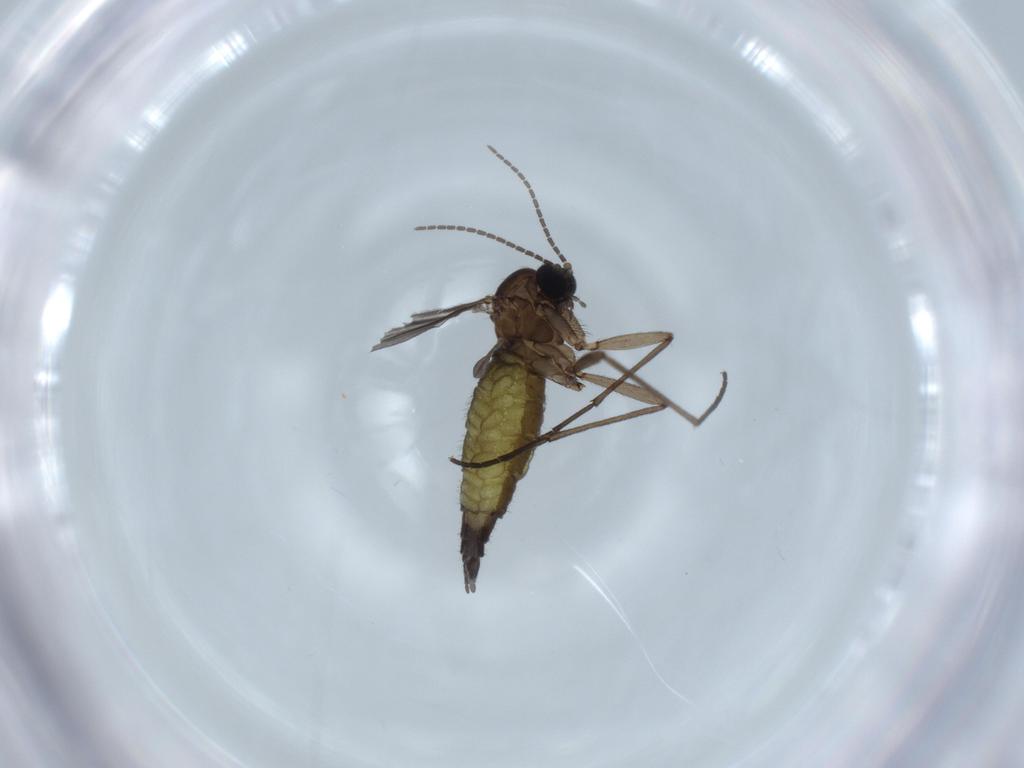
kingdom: Animalia
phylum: Arthropoda
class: Insecta
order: Diptera
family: Sciaridae
